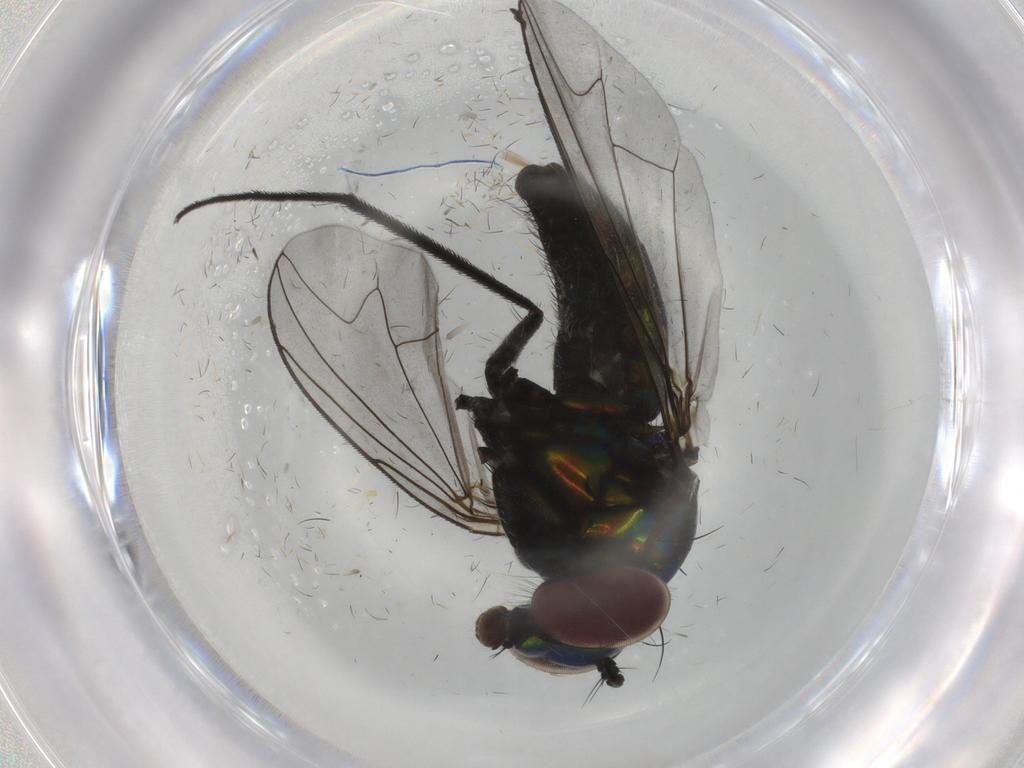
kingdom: Animalia
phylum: Arthropoda
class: Insecta
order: Diptera
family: Dolichopodidae
